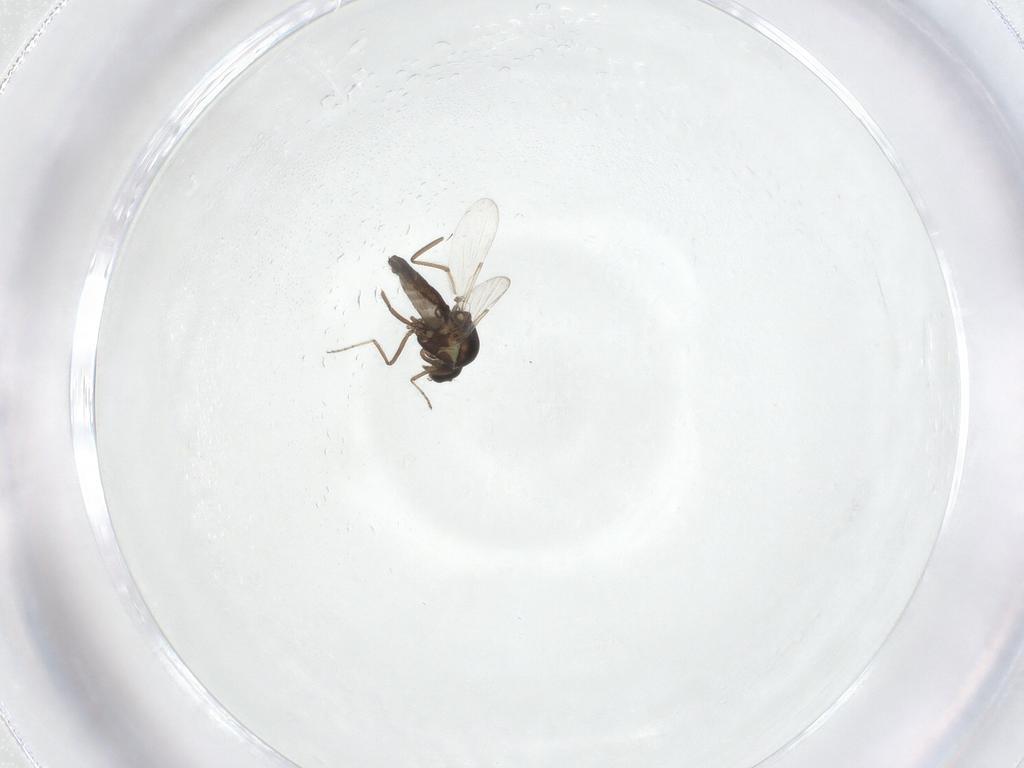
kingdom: Animalia
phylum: Arthropoda
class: Insecta
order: Diptera
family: Ceratopogonidae
